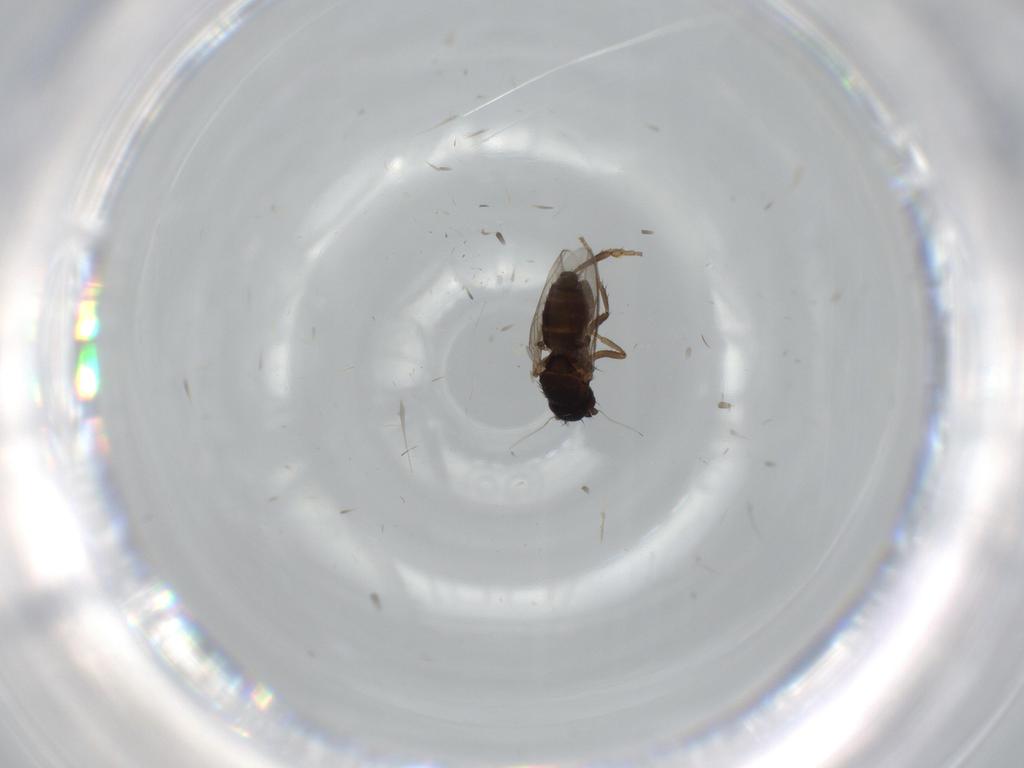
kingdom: Animalia
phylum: Arthropoda
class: Insecta
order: Diptera
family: Sphaeroceridae
